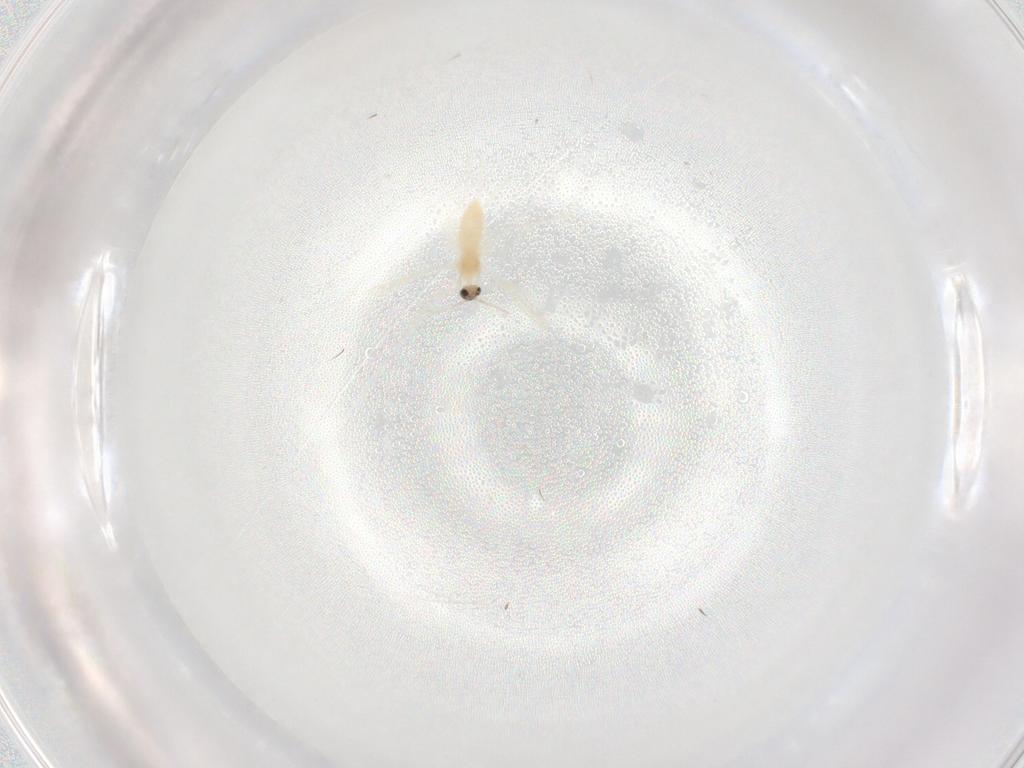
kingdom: Animalia
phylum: Arthropoda
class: Insecta
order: Diptera
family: Cecidomyiidae
